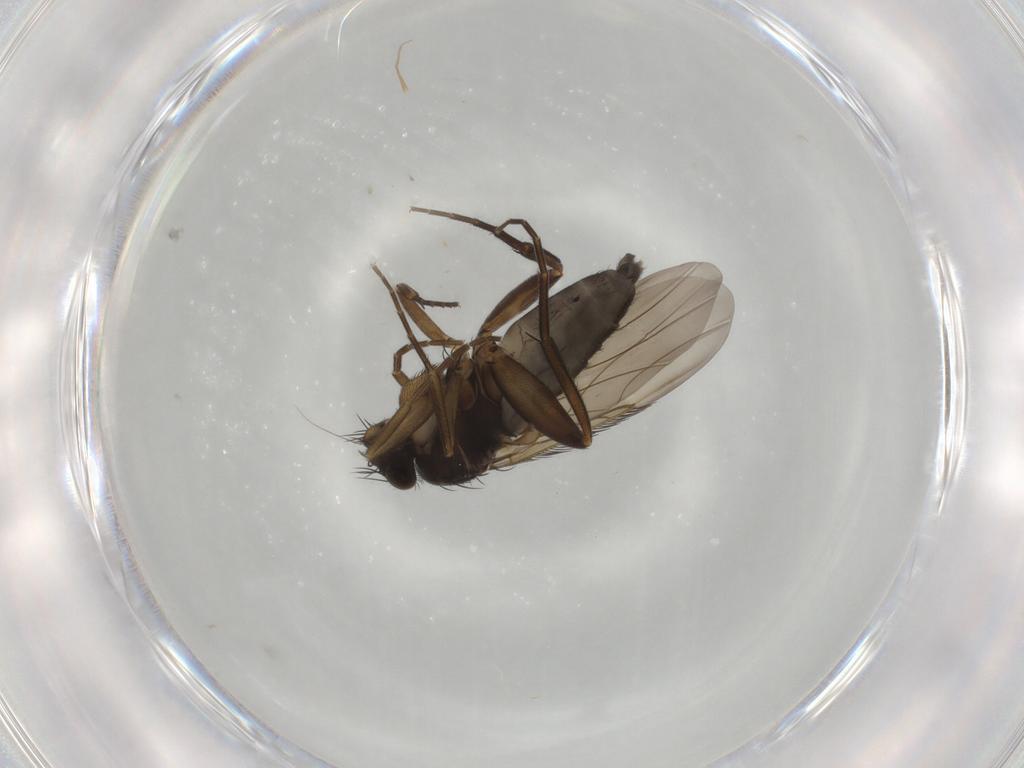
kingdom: Animalia
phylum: Arthropoda
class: Insecta
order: Diptera
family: Phoridae
